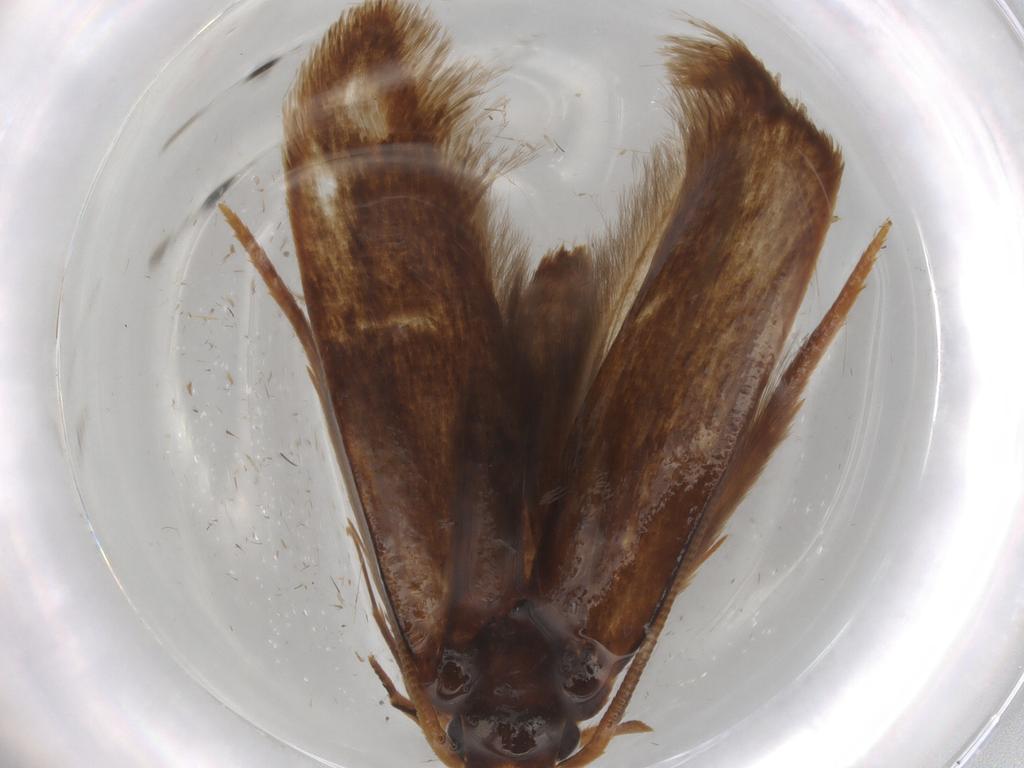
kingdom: Animalia
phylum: Arthropoda
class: Insecta
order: Lepidoptera
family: Tineidae
